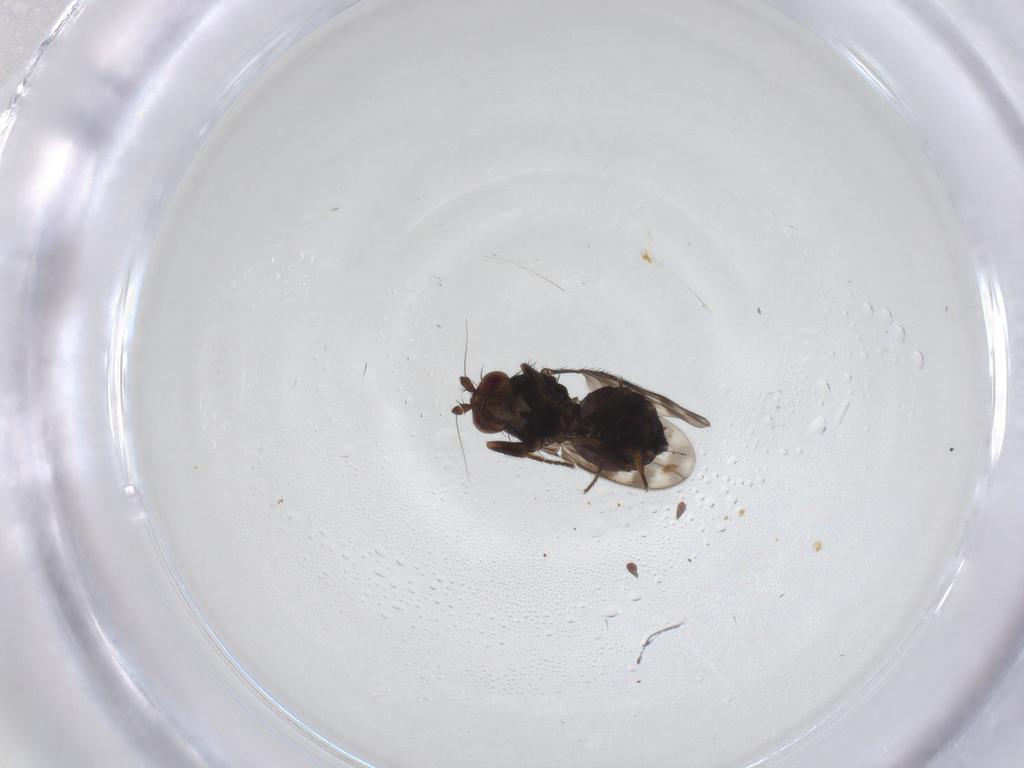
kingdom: Animalia
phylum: Arthropoda
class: Insecta
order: Diptera
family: Sphaeroceridae
